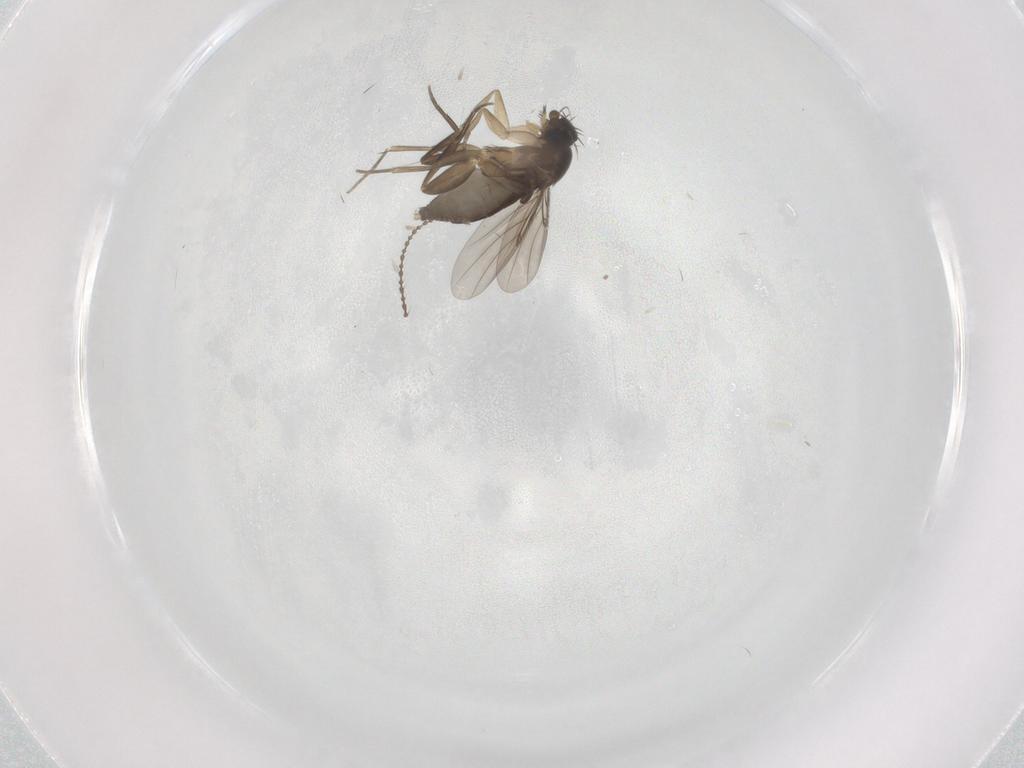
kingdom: Animalia
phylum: Arthropoda
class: Insecta
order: Diptera
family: Phoridae
